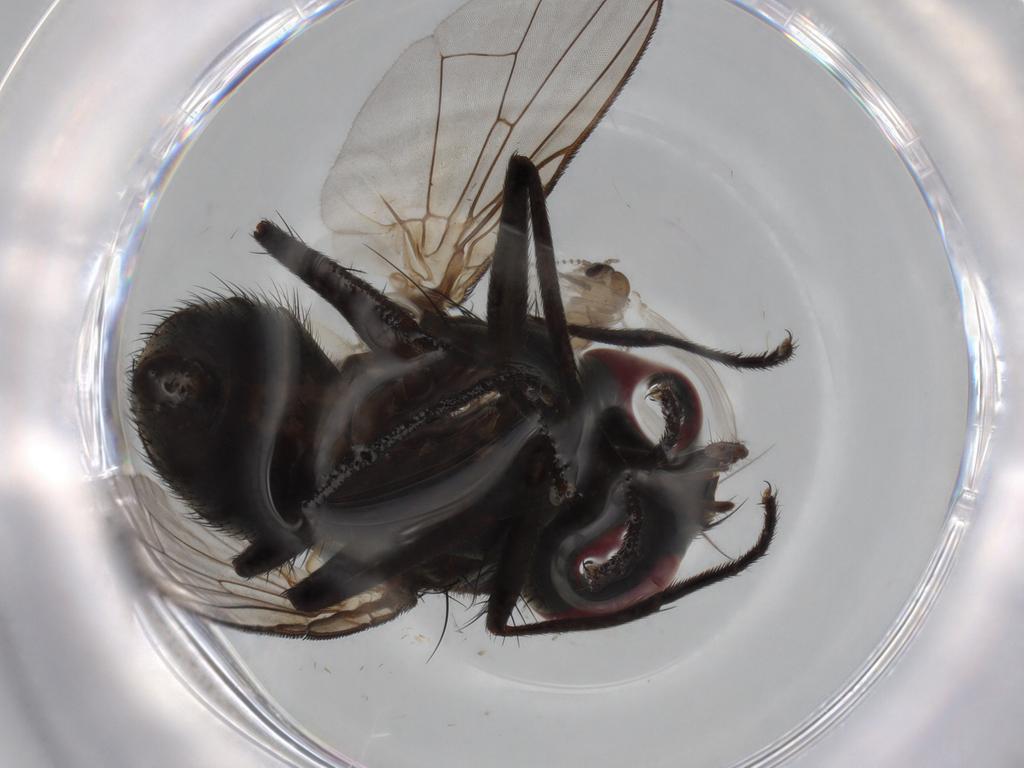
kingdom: Animalia
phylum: Arthropoda
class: Insecta
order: Diptera
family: Muscidae
